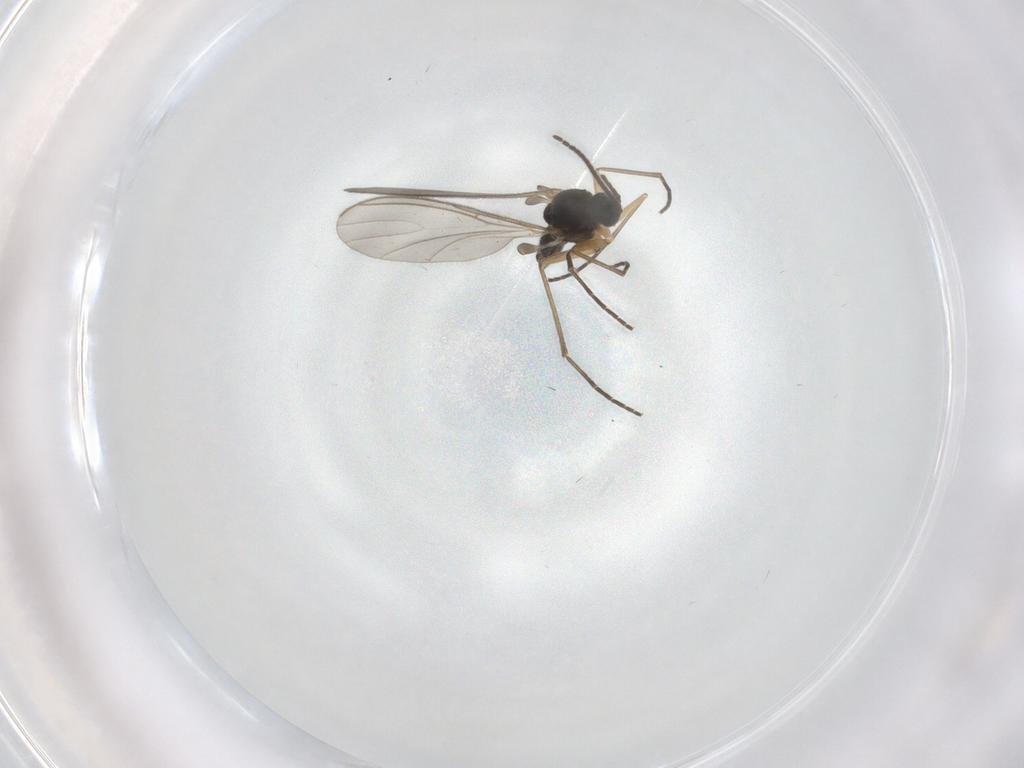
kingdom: Animalia
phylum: Arthropoda
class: Insecta
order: Diptera
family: Sciaridae
